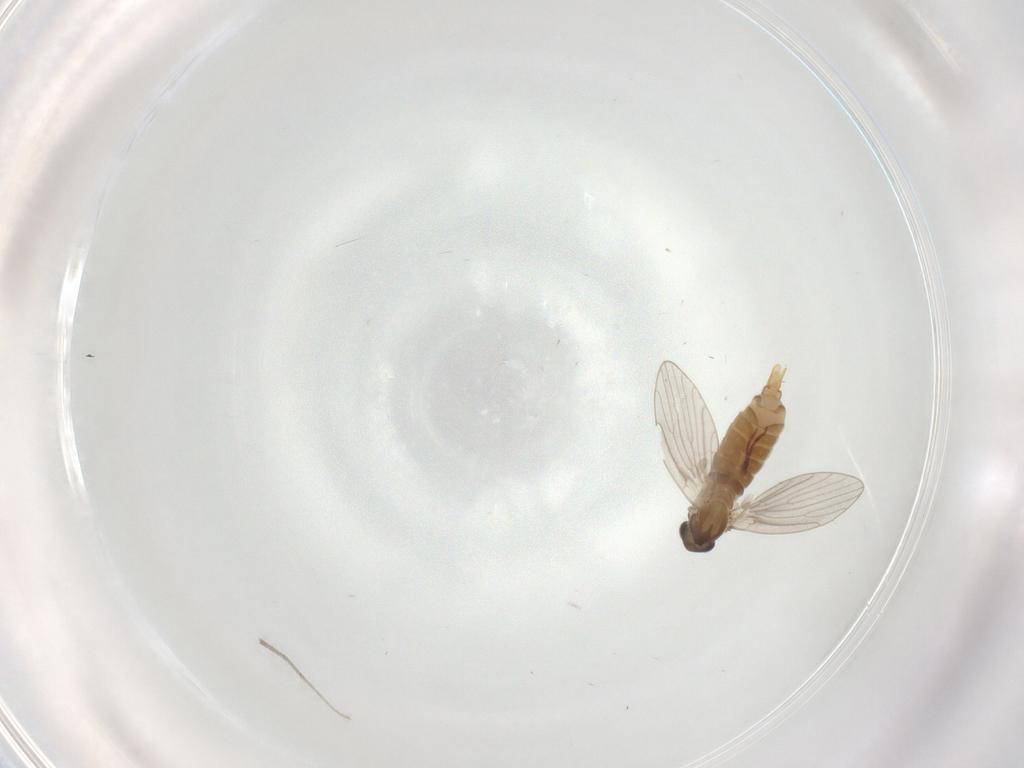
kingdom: Animalia
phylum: Arthropoda
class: Insecta
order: Diptera
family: Cecidomyiidae
